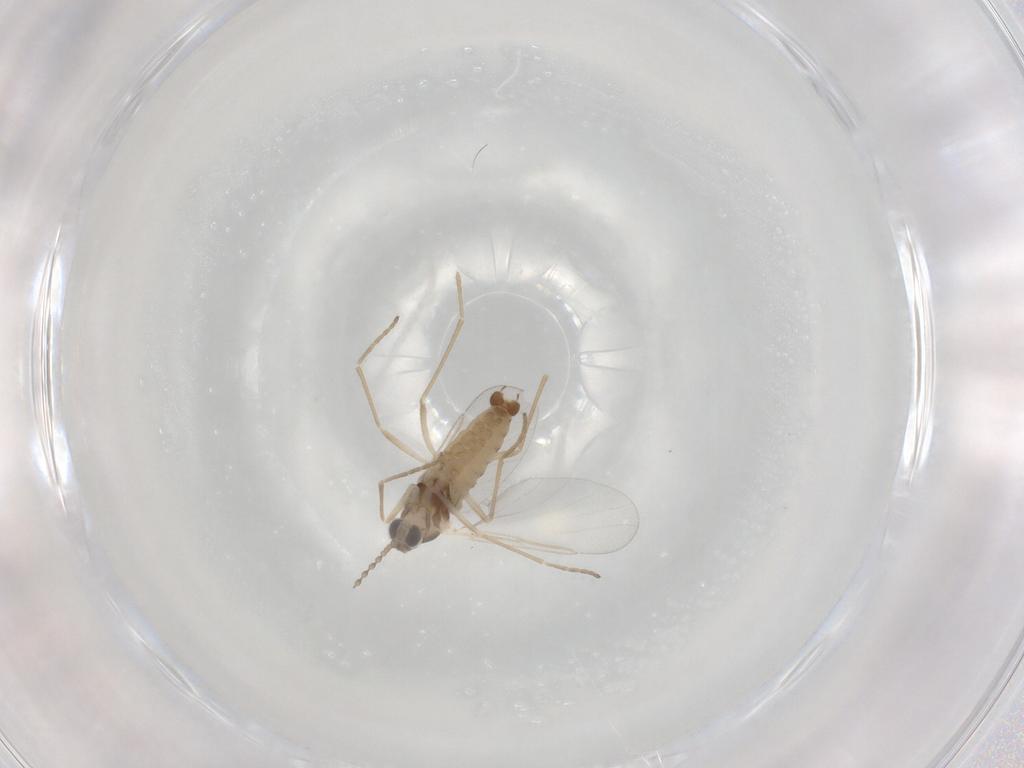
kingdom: Animalia
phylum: Arthropoda
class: Insecta
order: Diptera
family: Cecidomyiidae
